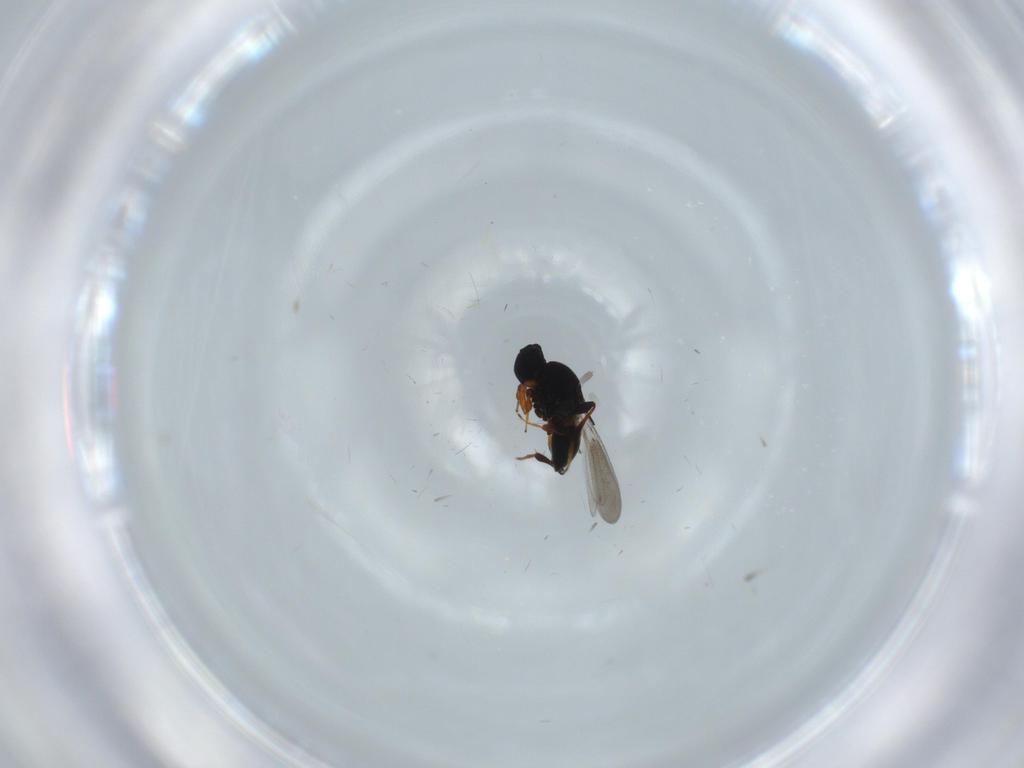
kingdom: Animalia
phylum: Arthropoda
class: Insecta
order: Hymenoptera
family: Platygastridae
